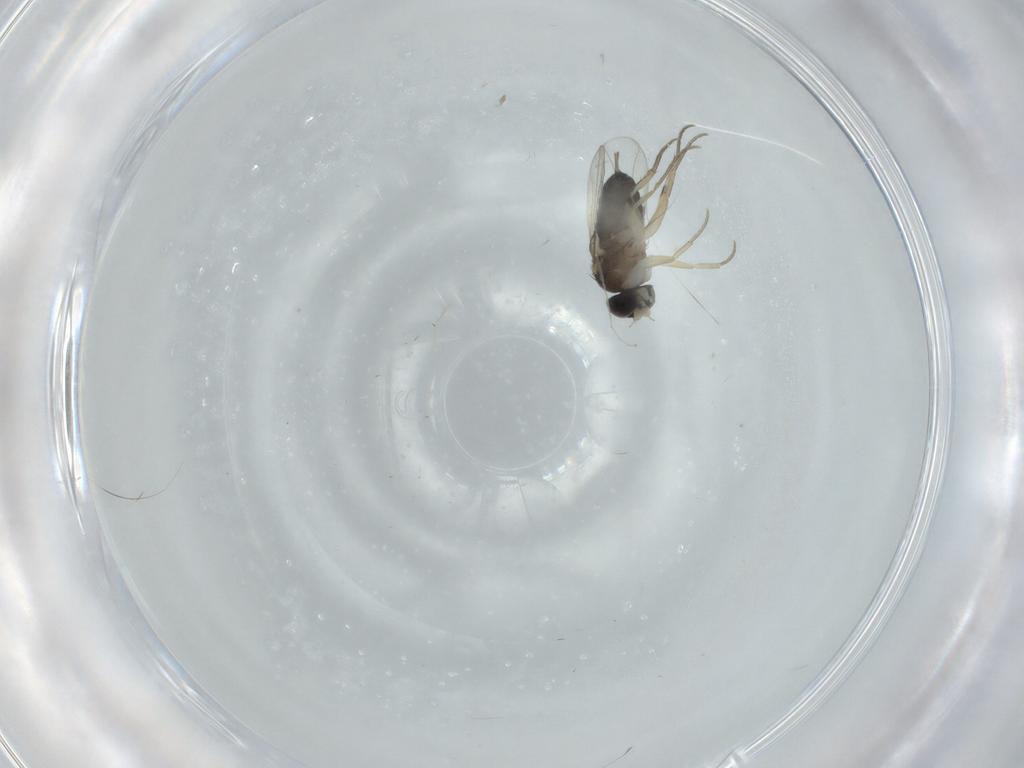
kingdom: Animalia
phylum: Arthropoda
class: Insecta
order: Diptera
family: Phoridae
